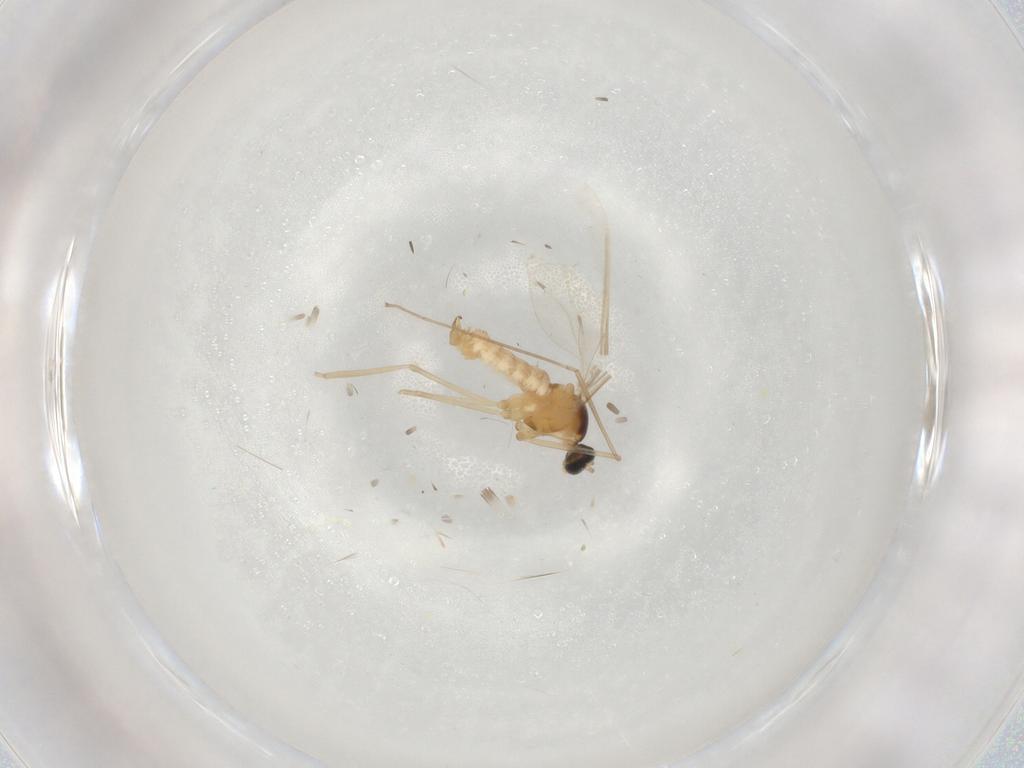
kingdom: Animalia
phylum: Arthropoda
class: Insecta
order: Diptera
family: Cecidomyiidae
